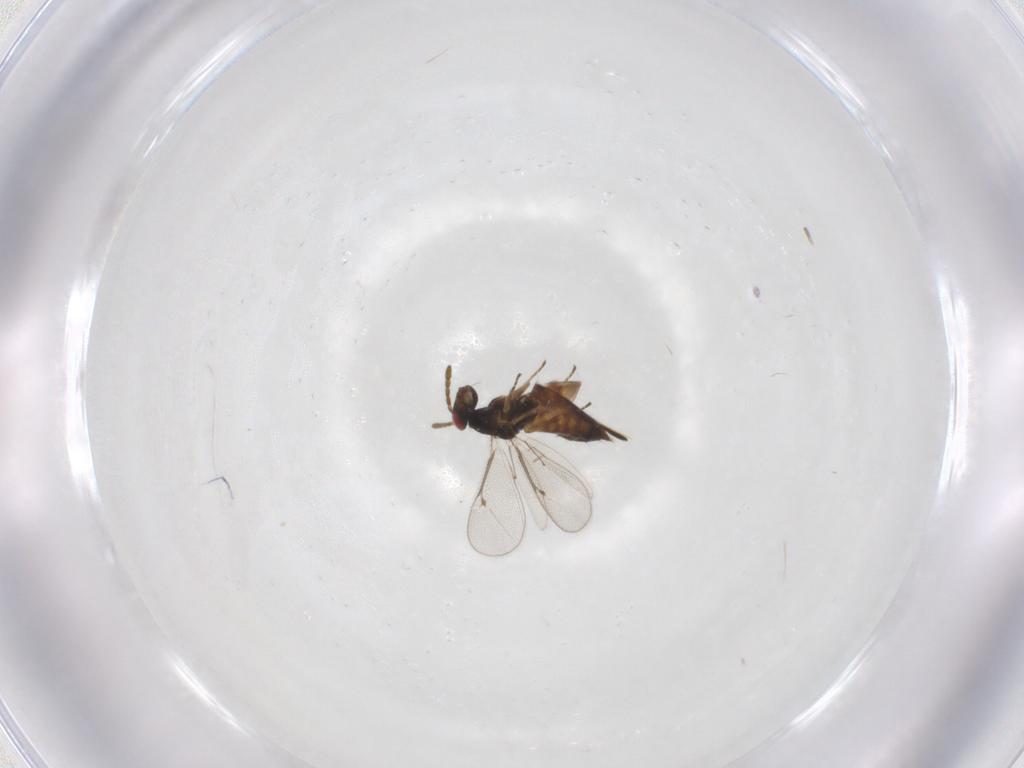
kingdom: Animalia
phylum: Arthropoda
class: Insecta
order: Hymenoptera
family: Eulophidae
